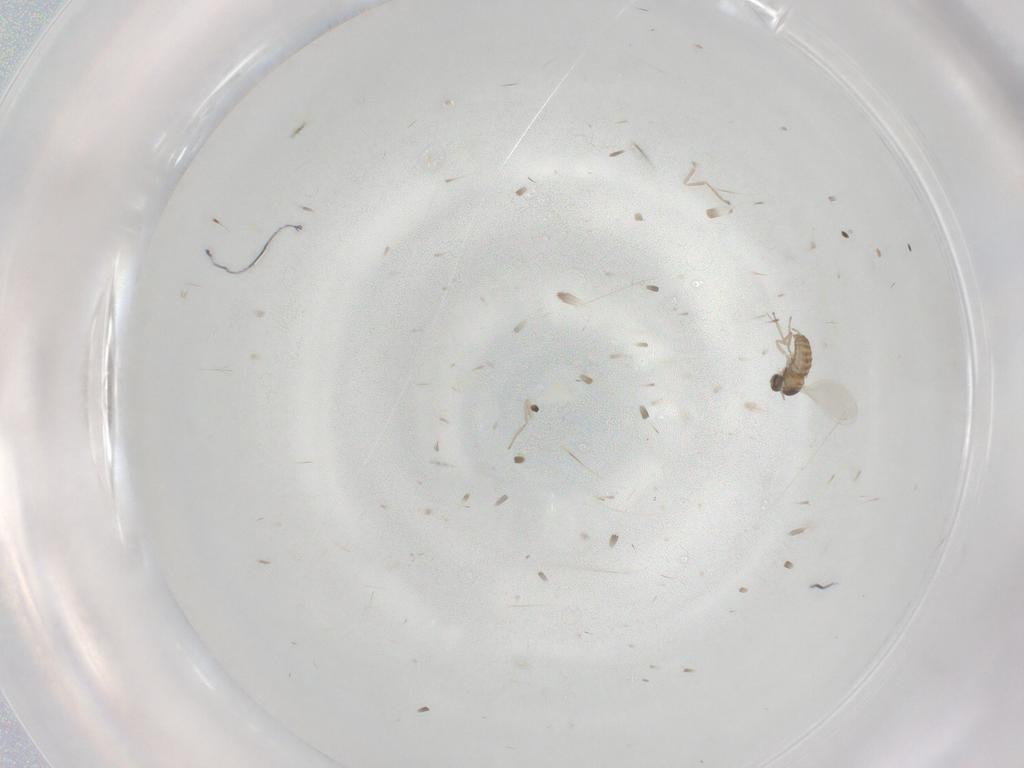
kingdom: Animalia
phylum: Arthropoda
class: Insecta
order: Diptera
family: Cecidomyiidae
